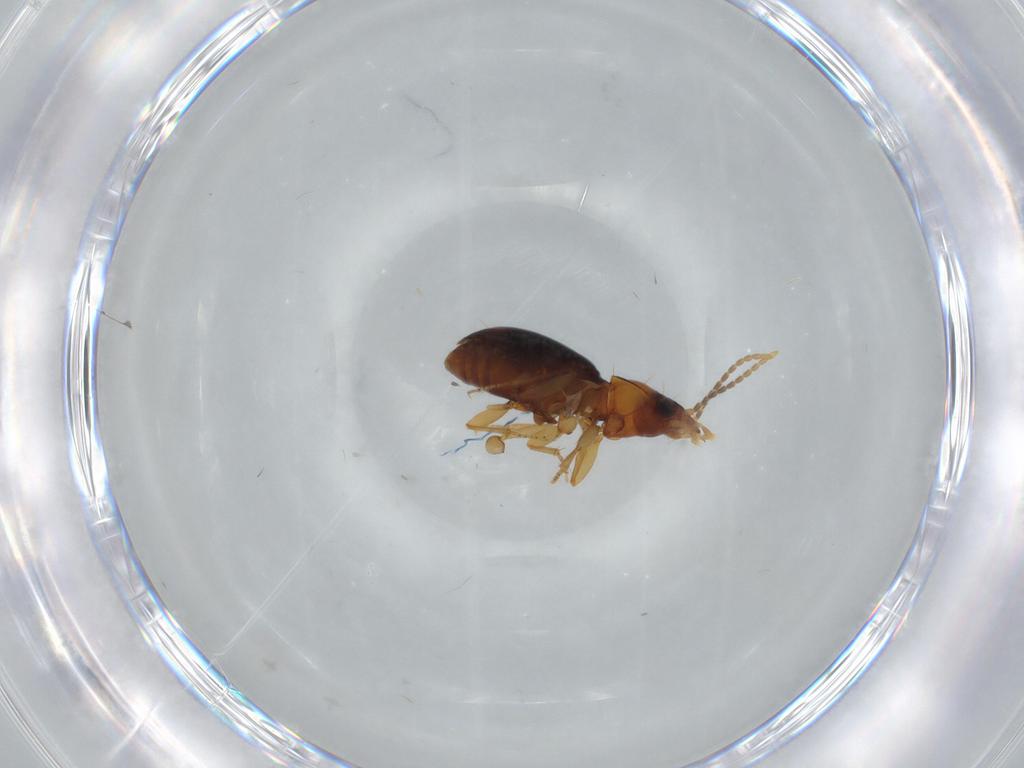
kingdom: Animalia
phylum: Arthropoda
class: Insecta
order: Coleoptera
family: Carabidae
